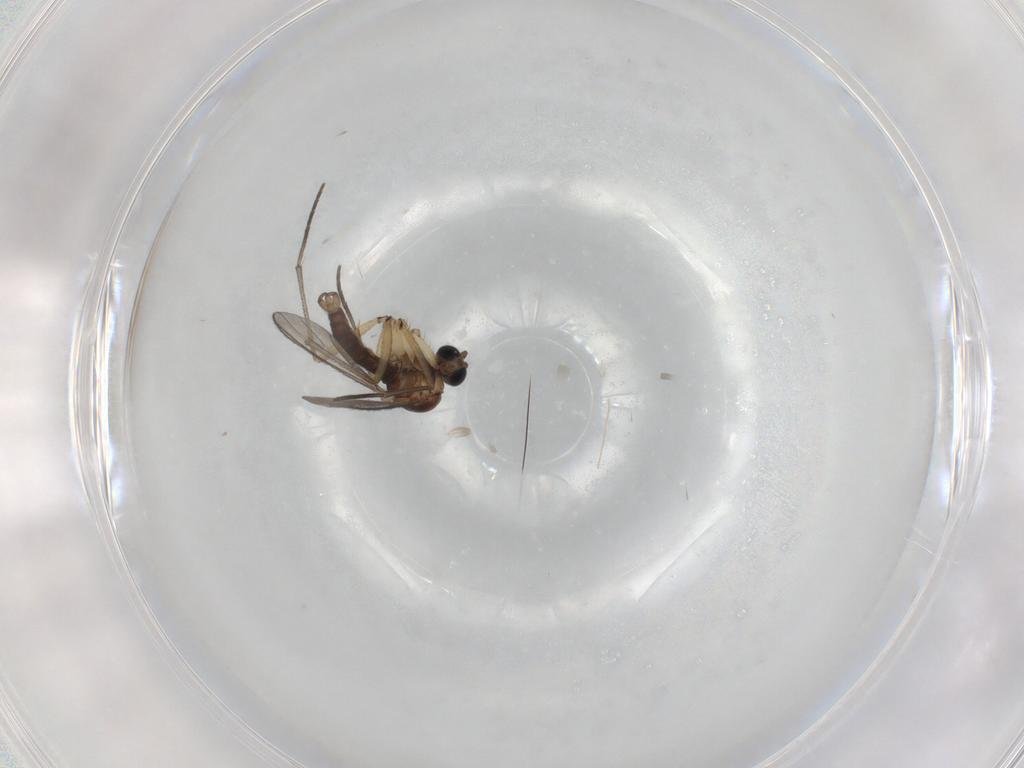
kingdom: Animalia
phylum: Arthropoda
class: Insecta
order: Diptera
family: Sciaridae
